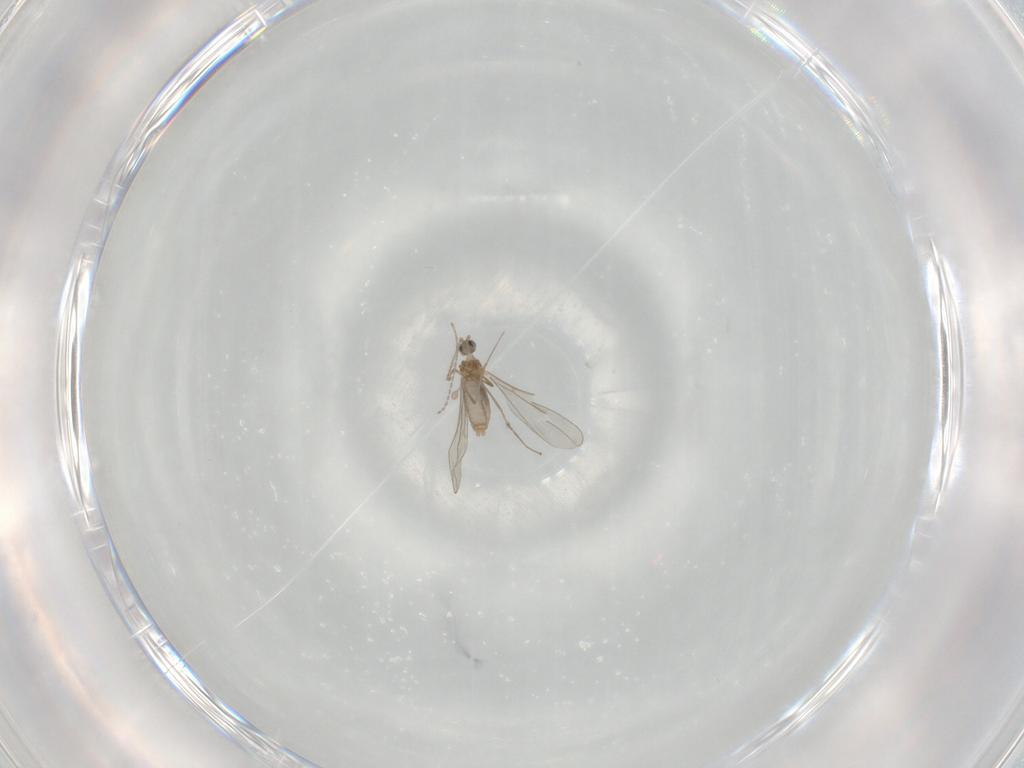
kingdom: Animalia
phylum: Arthropoda
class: Insecta
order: Diptera
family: Cecidomyiidae
